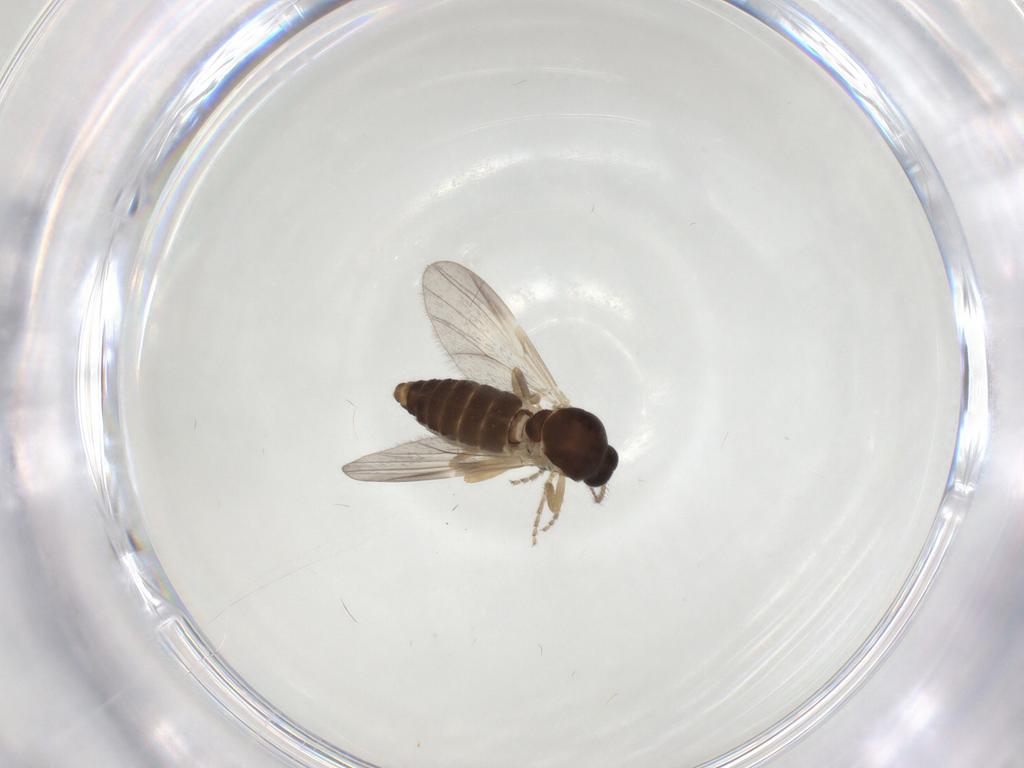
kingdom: Animalia
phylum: Arthropoda
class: Insecta
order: Diptera
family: Ceratopogonidae
